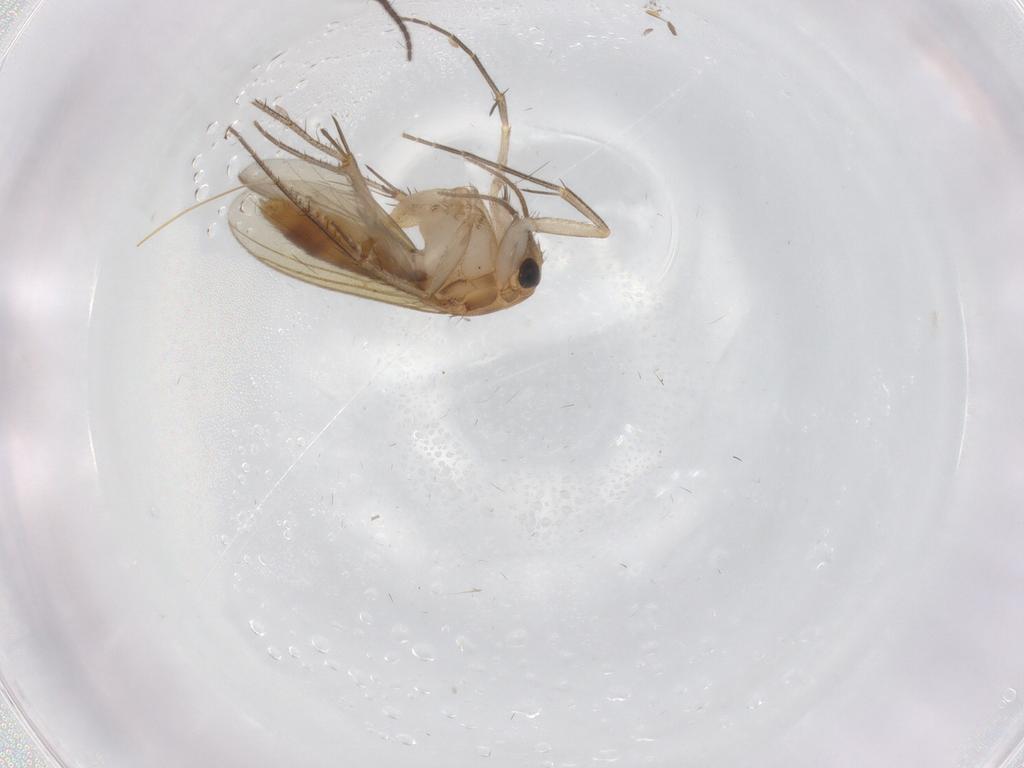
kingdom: Animalia
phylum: Arthropoda
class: Insecta
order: Diptera
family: Mycetophilidae
